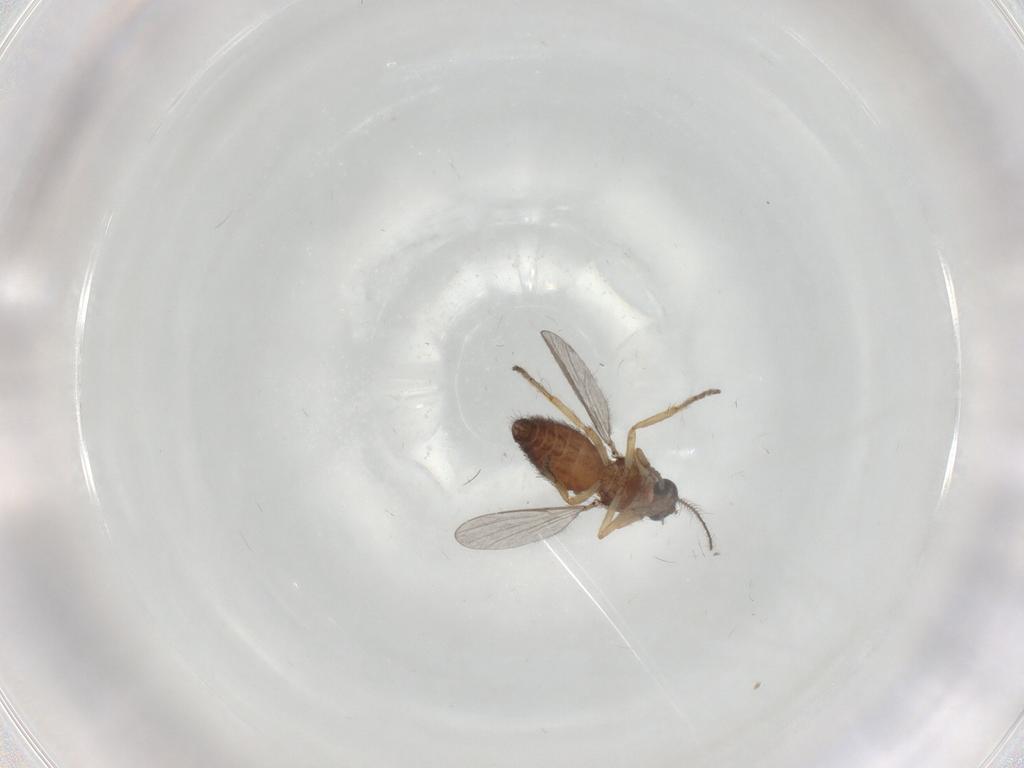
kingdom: Animalia
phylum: Arthropoda
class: Insecta
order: Diptera
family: Ceratopogonidae
